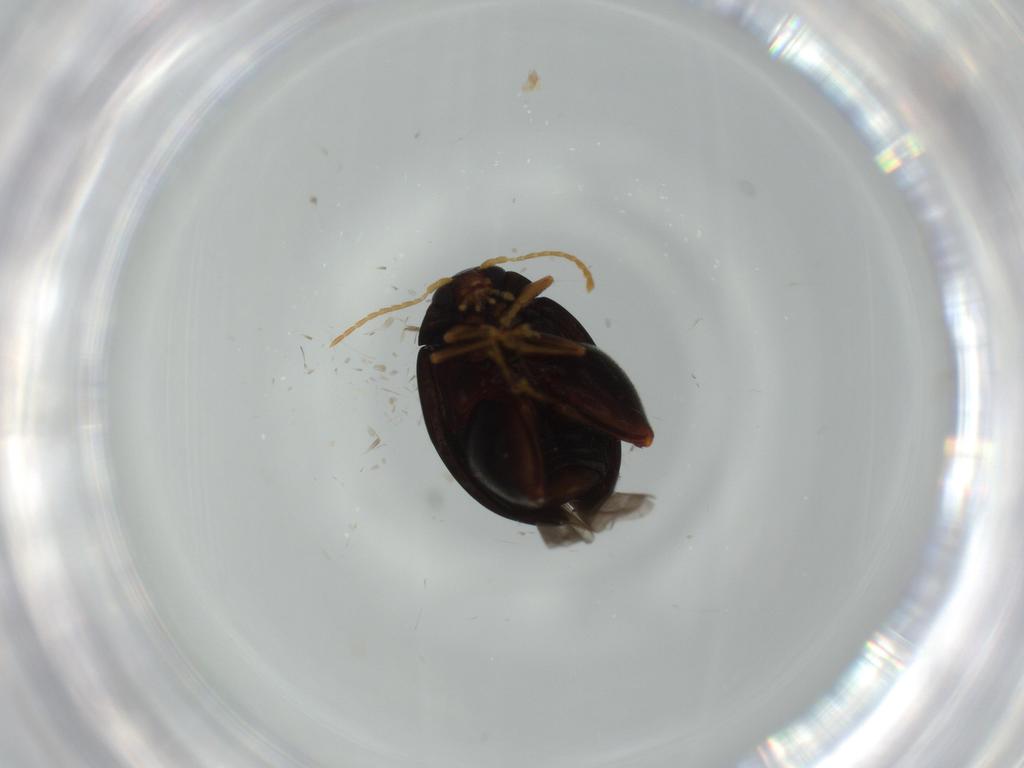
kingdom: Animalia
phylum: Arthropoda
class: Insecta
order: Coleoptera
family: Chrysomelidae
